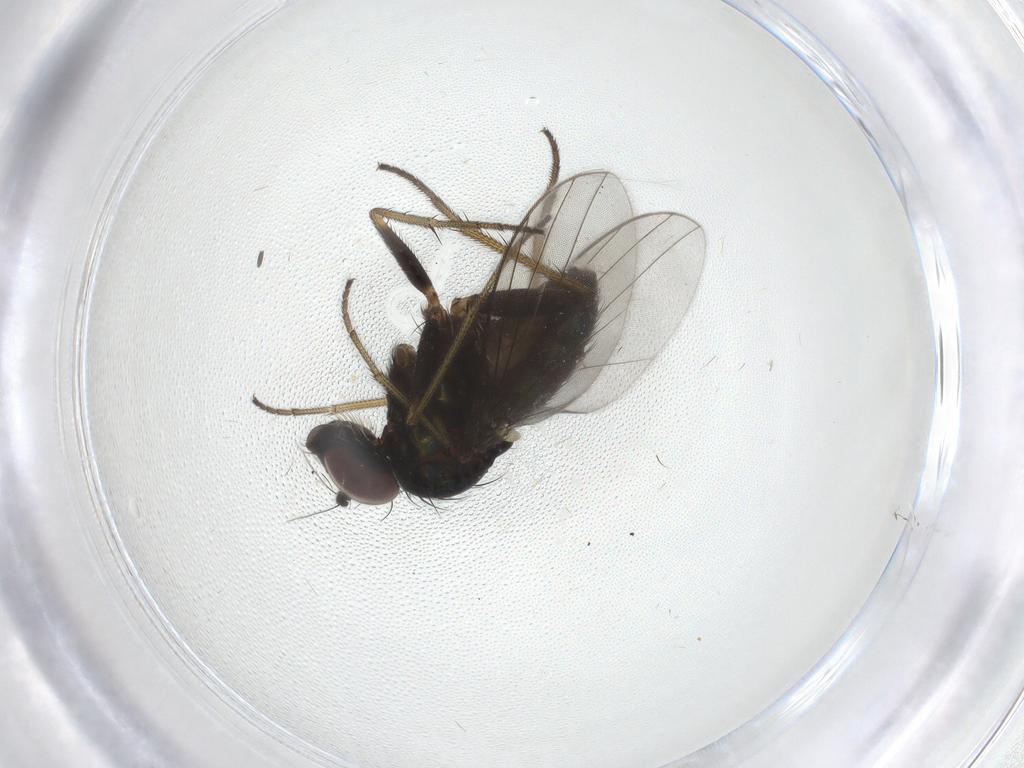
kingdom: Animalia
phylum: Arthropoda
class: Insecta
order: Diptera
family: Dolichopodidae
